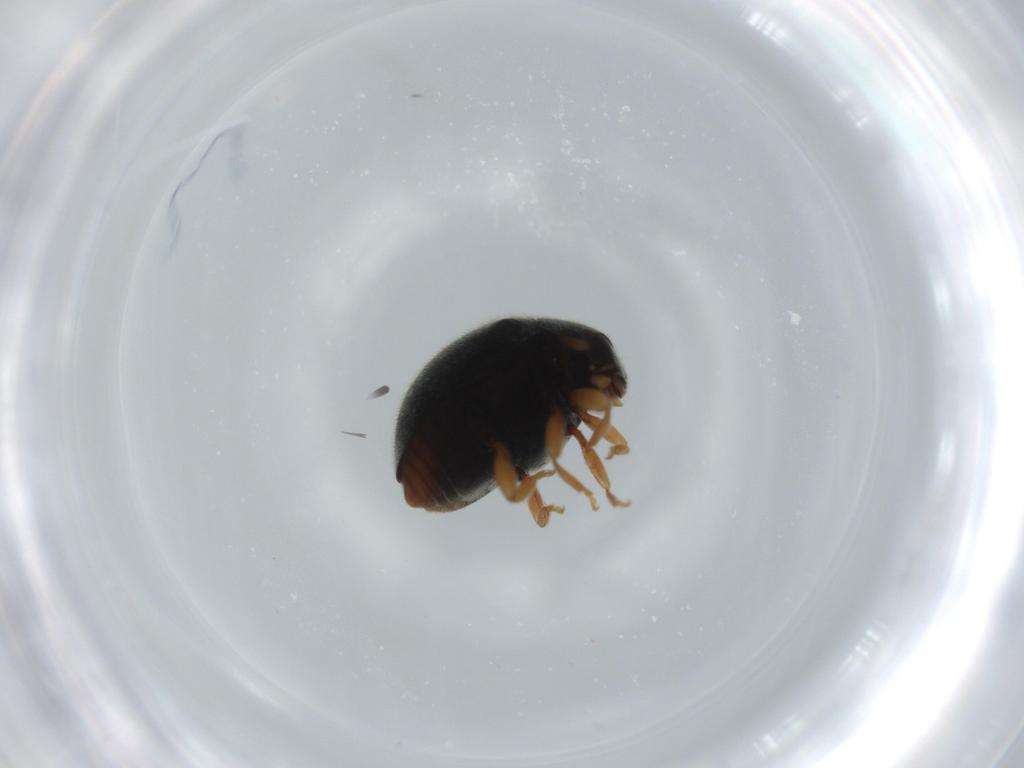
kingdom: Animalia
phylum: Arthropoda
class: Insecta
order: Coleoptera
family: Coccinellidae
